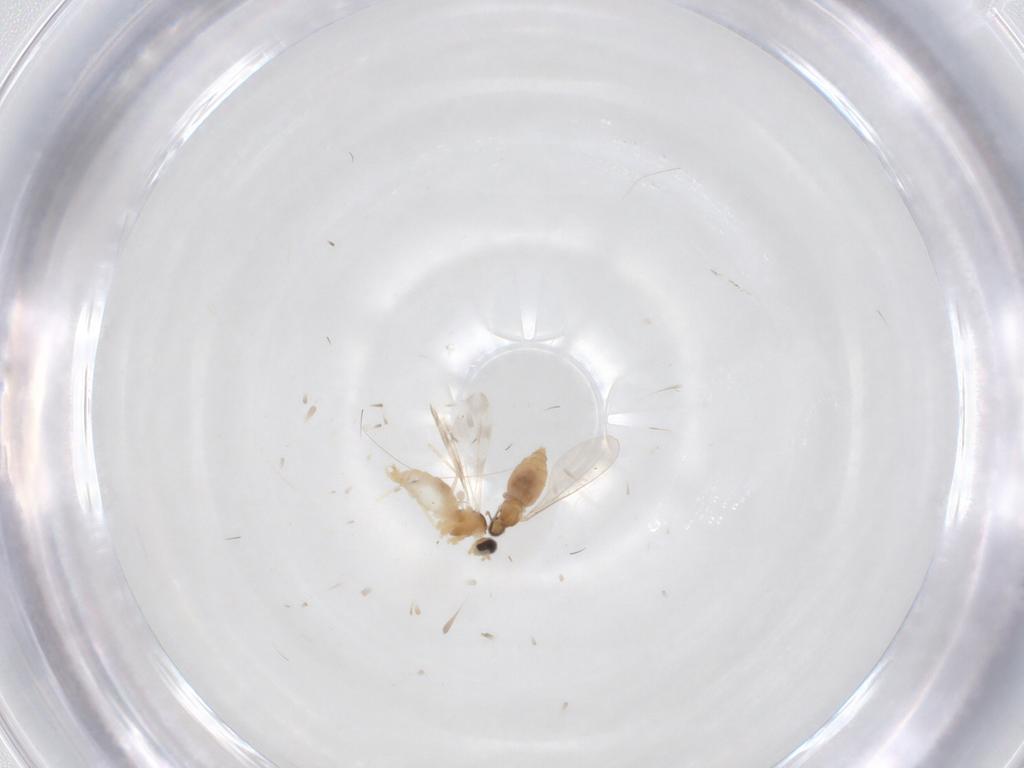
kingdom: Animalia
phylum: Arthropoda
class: Insecta
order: Diptera
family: Cecidomyiidae
